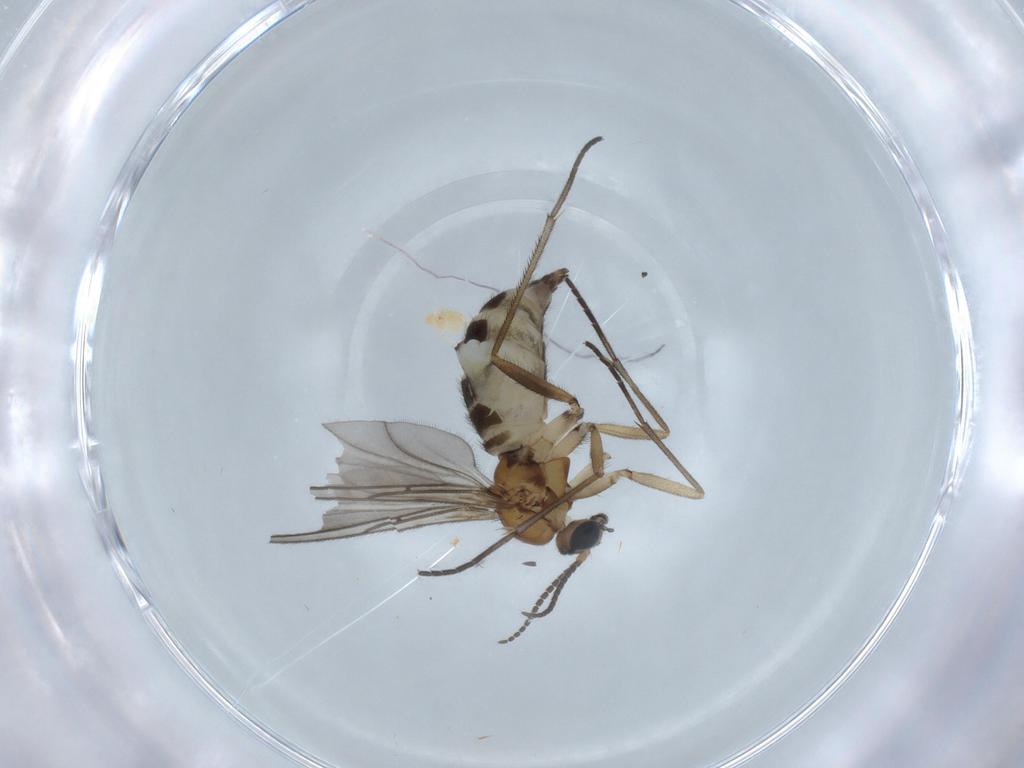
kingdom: Animalia
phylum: Arthropoda
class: Insecta
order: Diptera
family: Sciaridae
